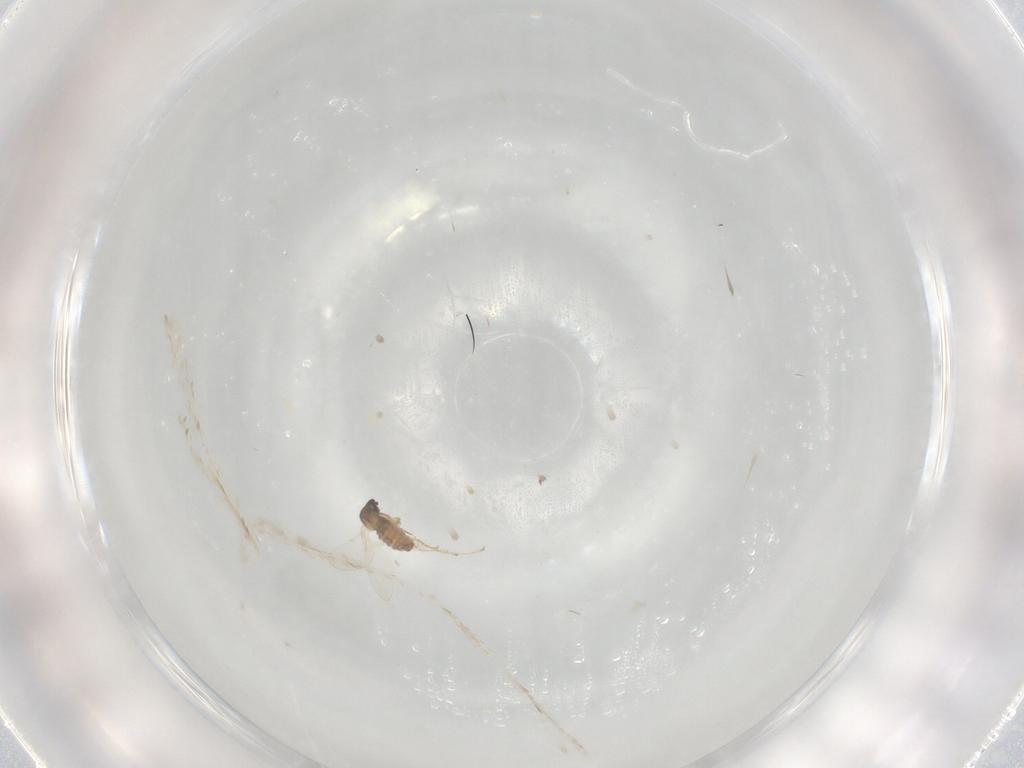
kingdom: Animalia
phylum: Arthropoda
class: Insecta
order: Diptera
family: Cecidomyiidae
